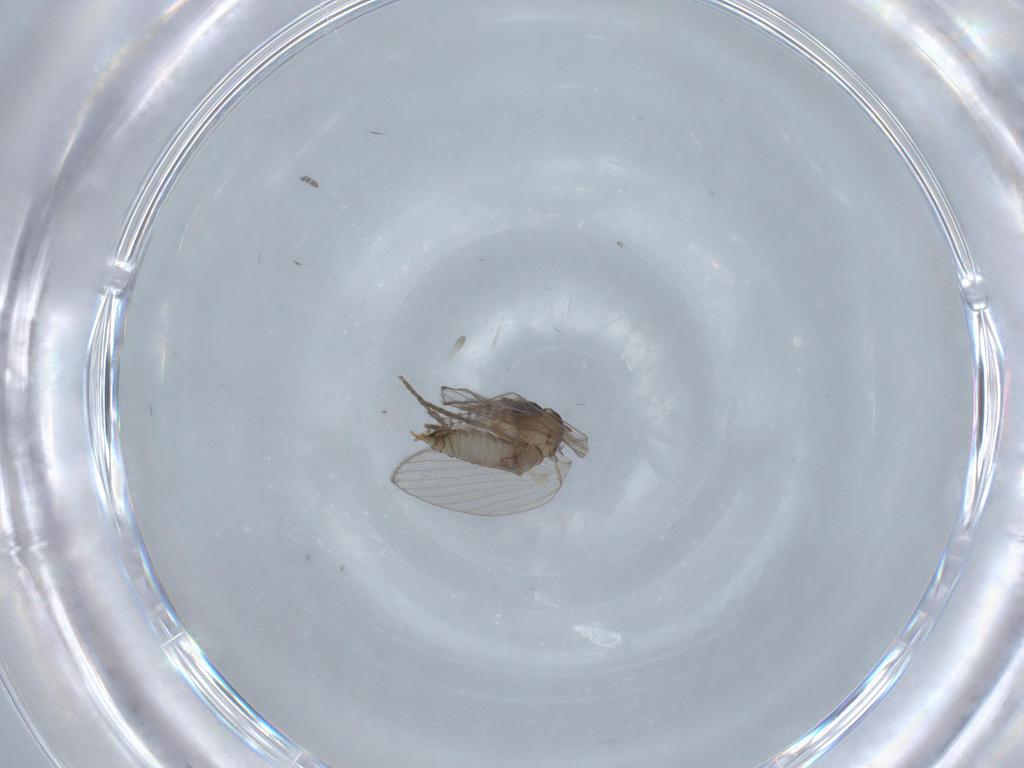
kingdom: Animalia
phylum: Arthropoda
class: Insecta
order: Diptera
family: Psychodidae
